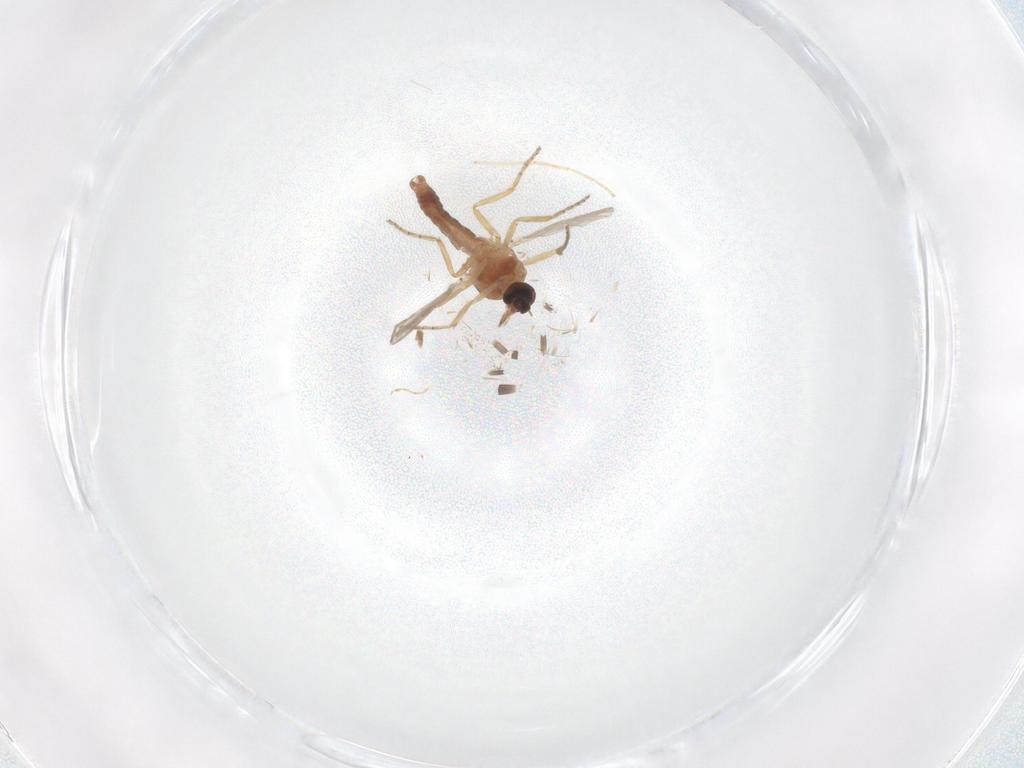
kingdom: Animalia
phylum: Arthropoda
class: Insecta
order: Diptera
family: Ceratopogonidae
